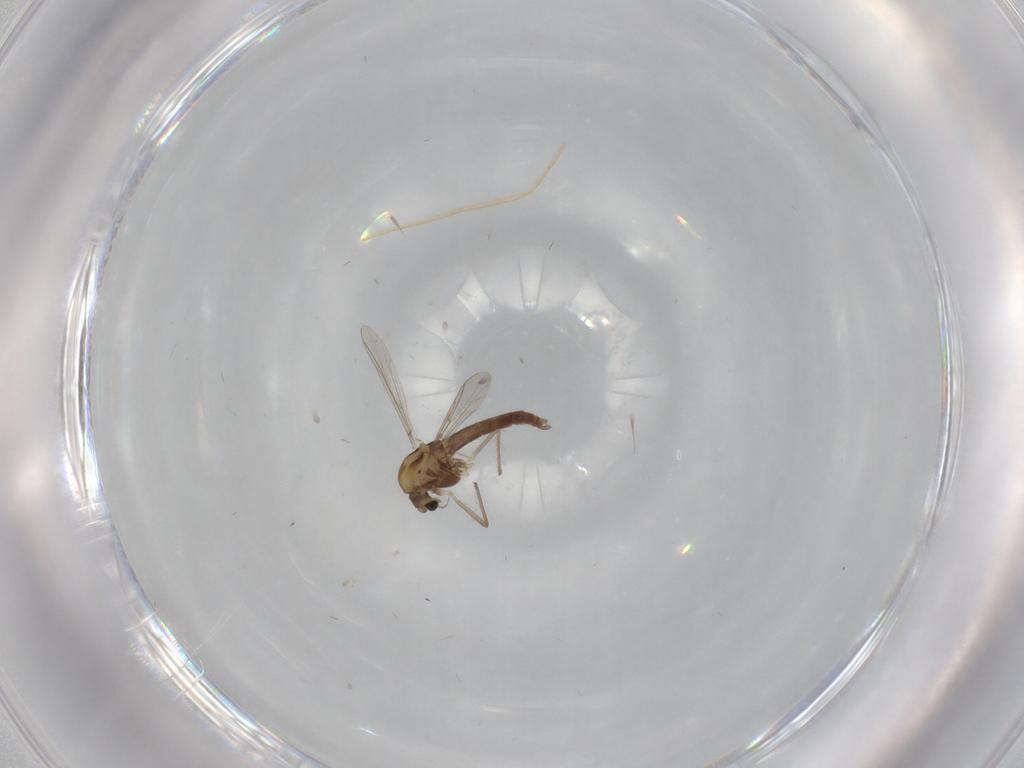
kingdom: Animalia
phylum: Arthropoda
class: Insecta
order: Diptera
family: Chironomidae
